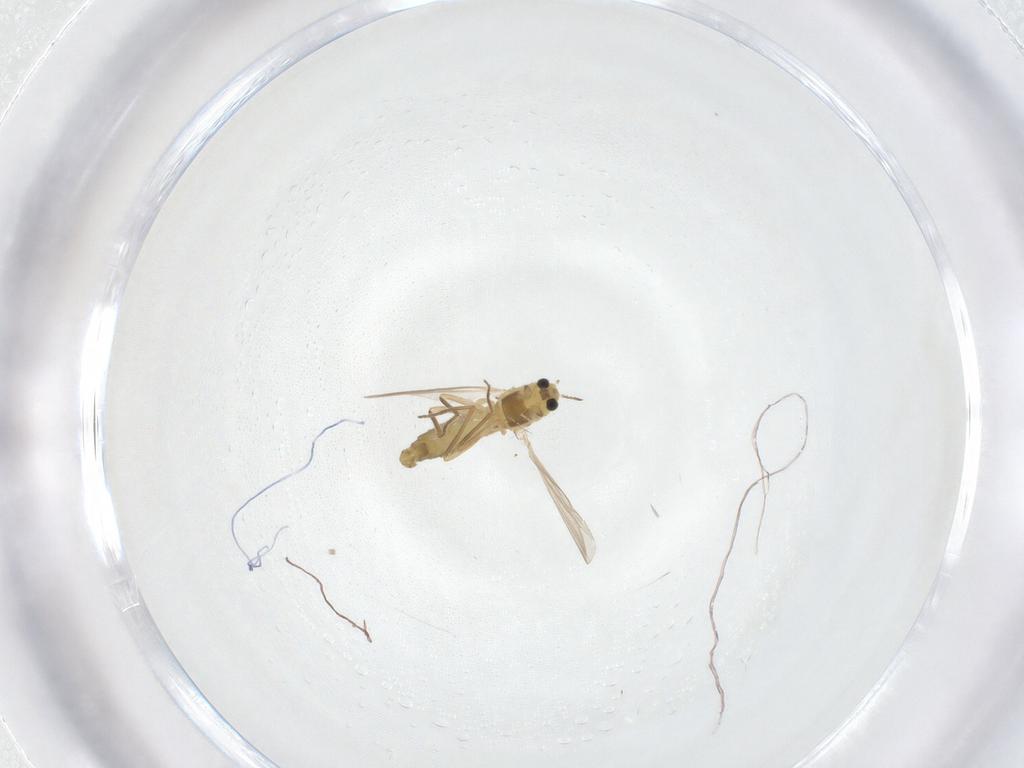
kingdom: Animalia
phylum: Arthropoda
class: Insecta
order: Diptera
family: Chironomidae
